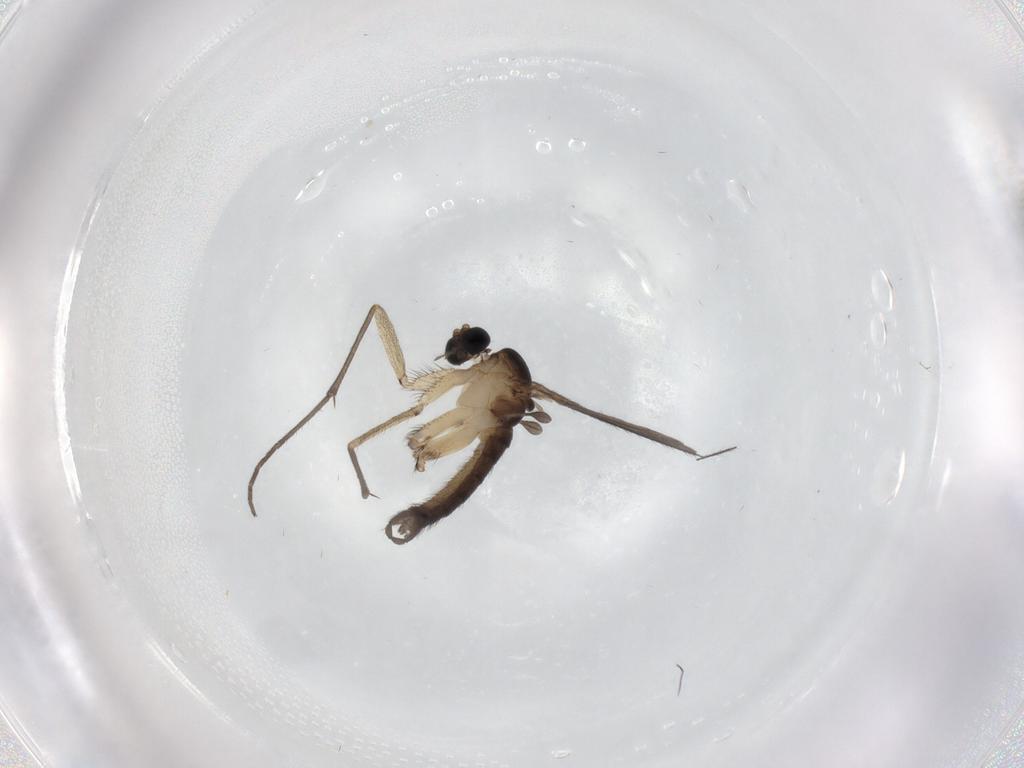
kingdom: Animalia
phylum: Arthropoda
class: Insecta
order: Diptera
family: Sciaridae
